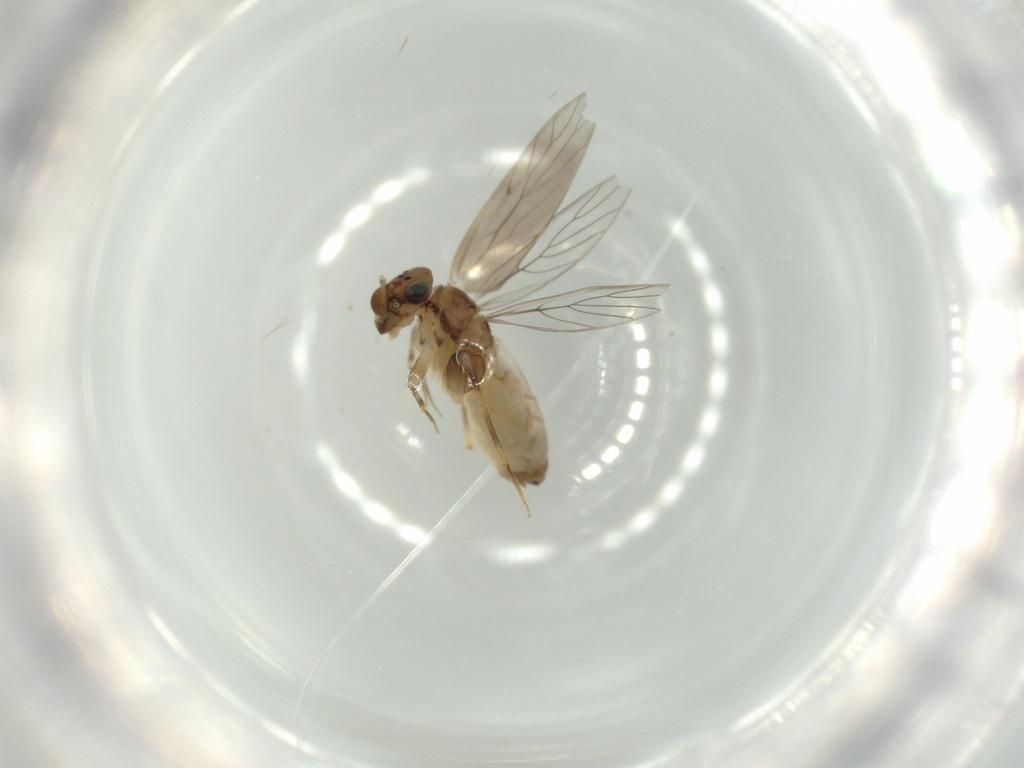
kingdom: Animalia
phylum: Arthropoda
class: Insecta
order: Psocodea
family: Lepidopsocidae
